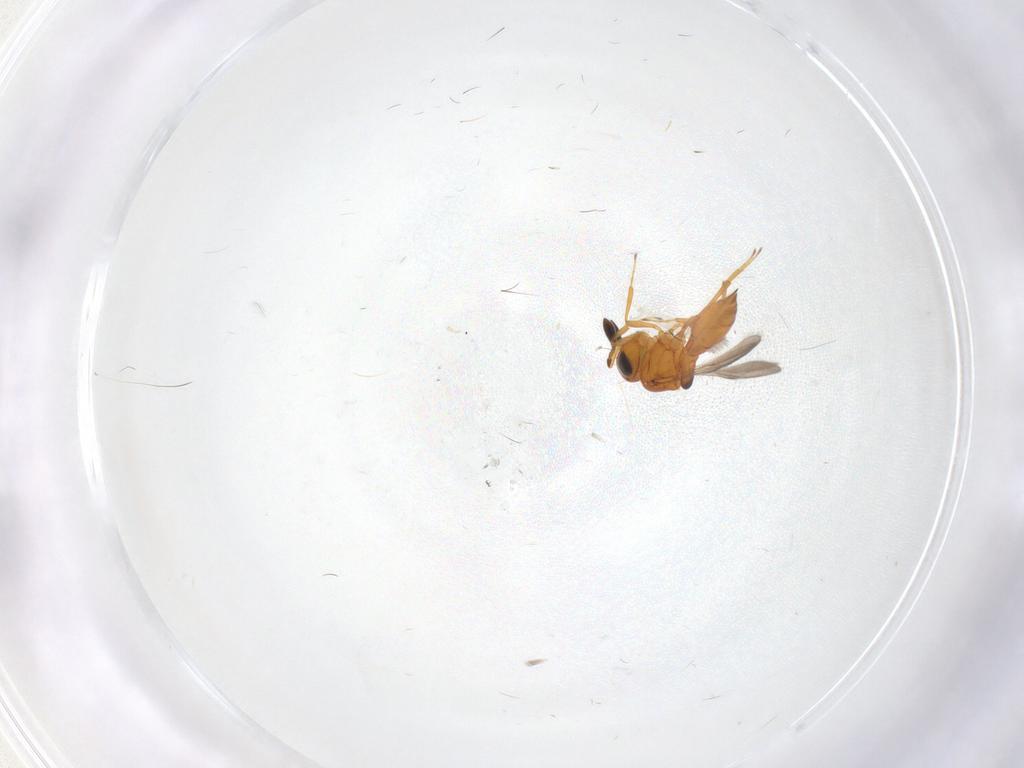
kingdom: Animalia
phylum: Arthropoda
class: Insecta
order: Hymenoptera
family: Scelionidae
